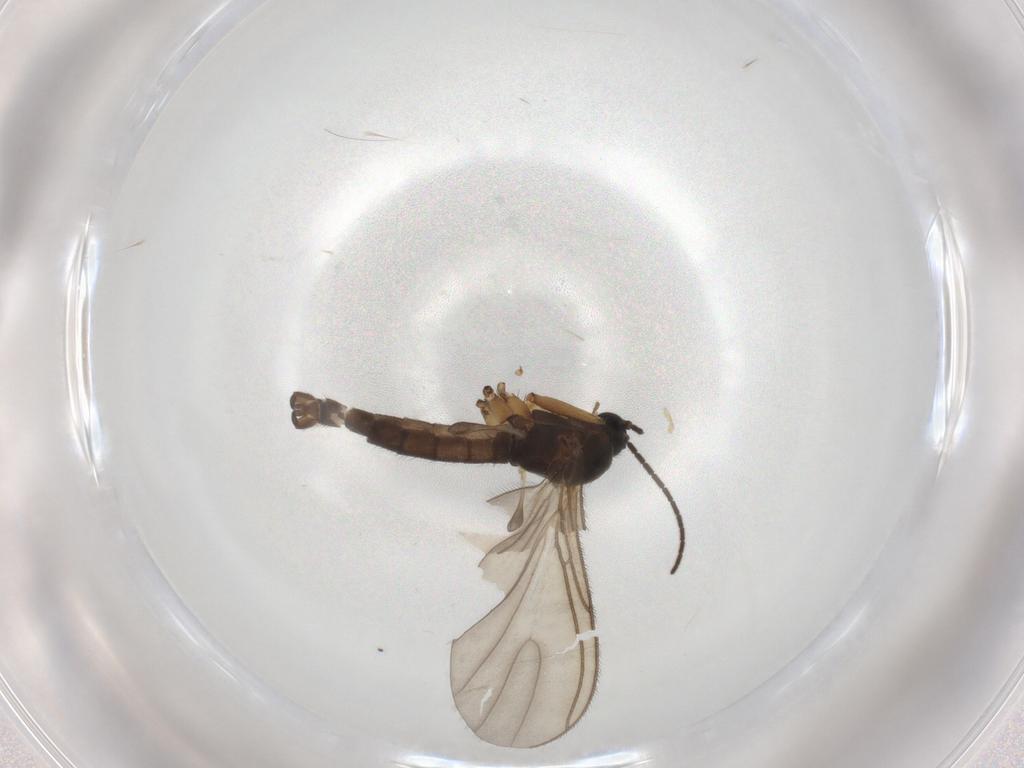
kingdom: Animalia
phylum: Arthropoda
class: Insecta
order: Diptera
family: Sciaridae
